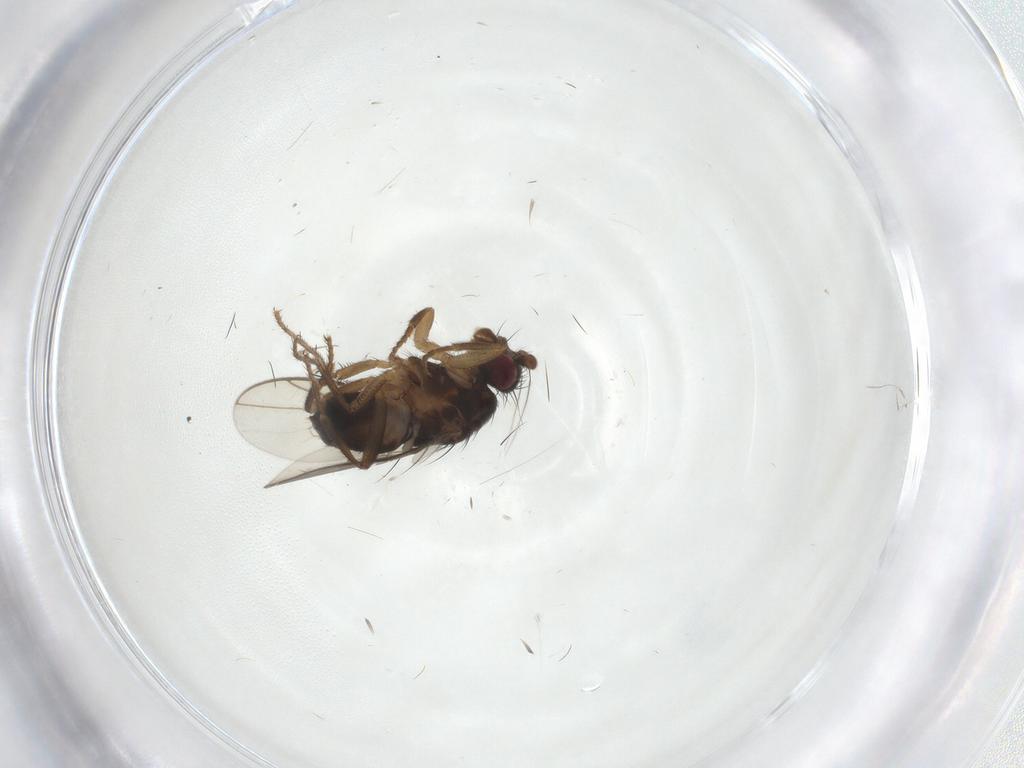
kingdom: Animalia
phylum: Arthropoda
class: Insecta
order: Diptera
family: Sphaeroceridae
